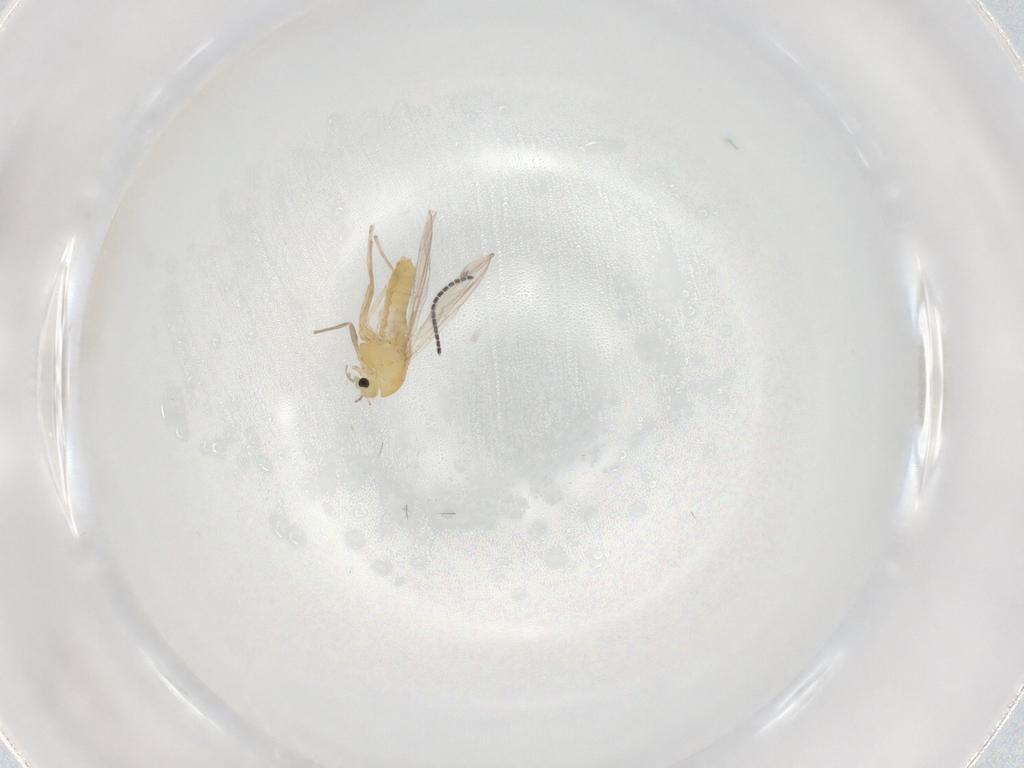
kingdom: Animalia
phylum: Arthropoda
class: Insecta
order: Diptera
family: Chironomidae
